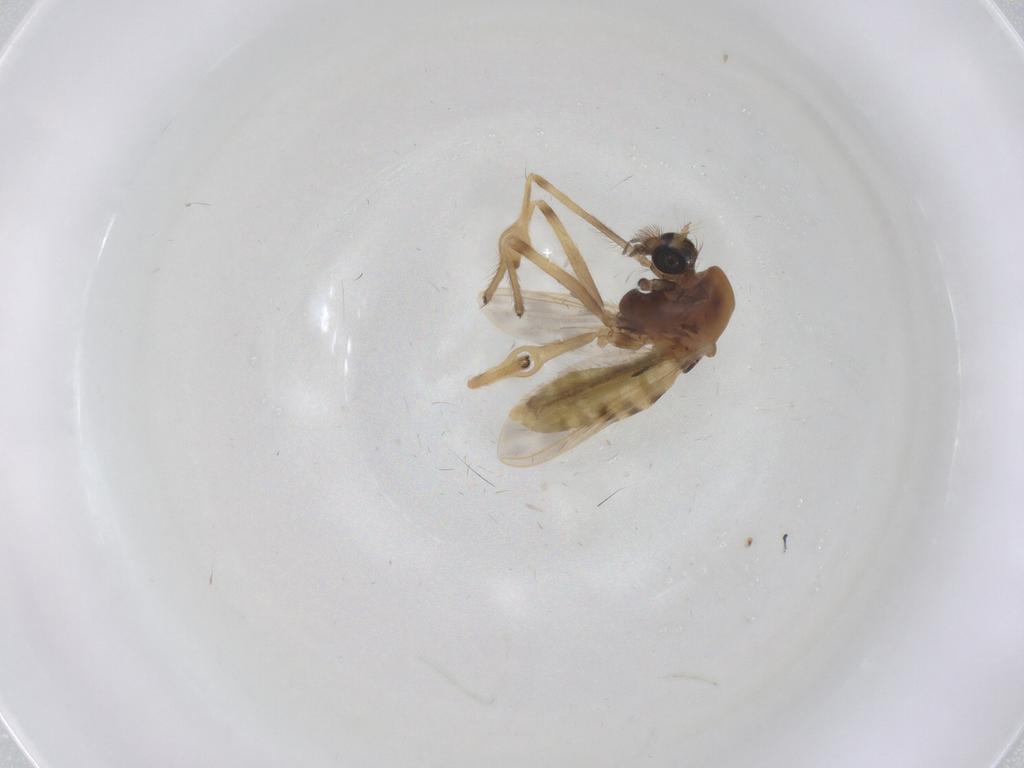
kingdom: Animalia
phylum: Arthropoda
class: Insecta
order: Diptera
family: Chironomidae
